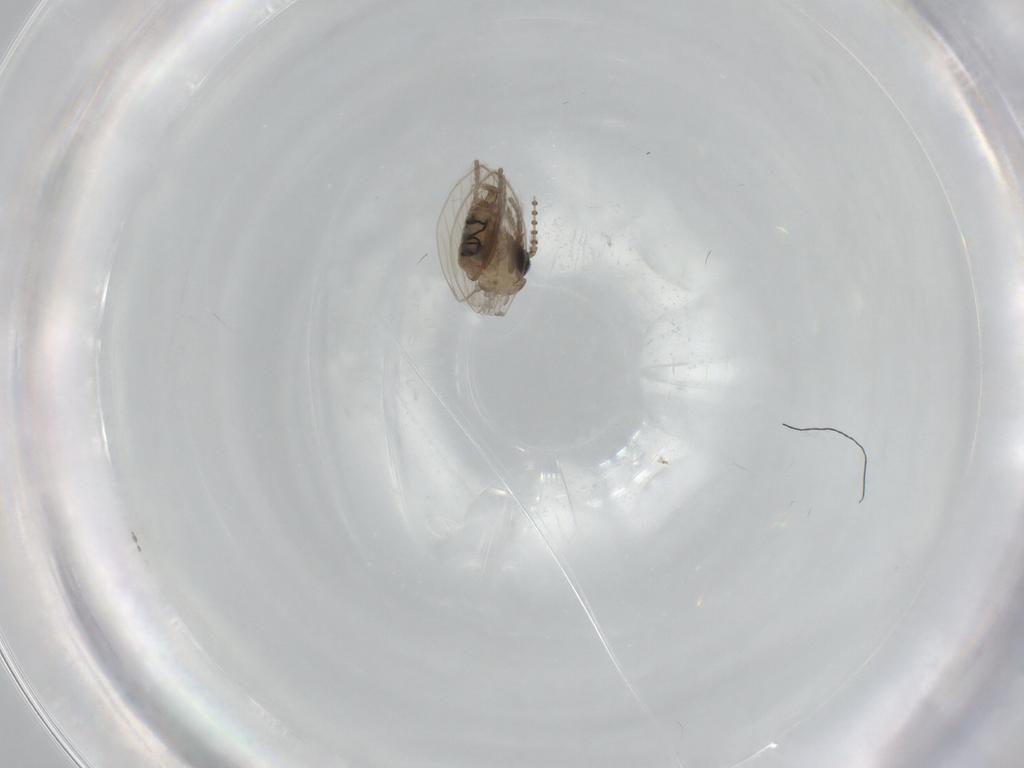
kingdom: Animalia
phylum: Arthropoda
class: Insecta
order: Diptera
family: Psychodidae
